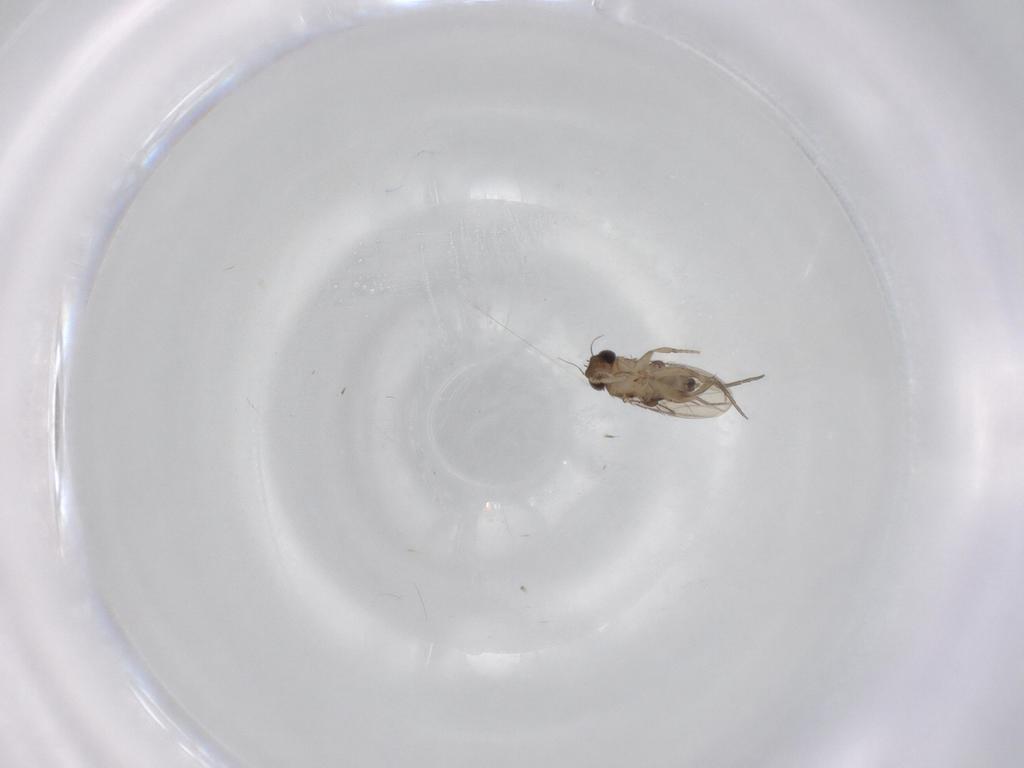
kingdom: Animalia
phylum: Arthropoda
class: Insecta
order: Diptera
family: Phoridae
